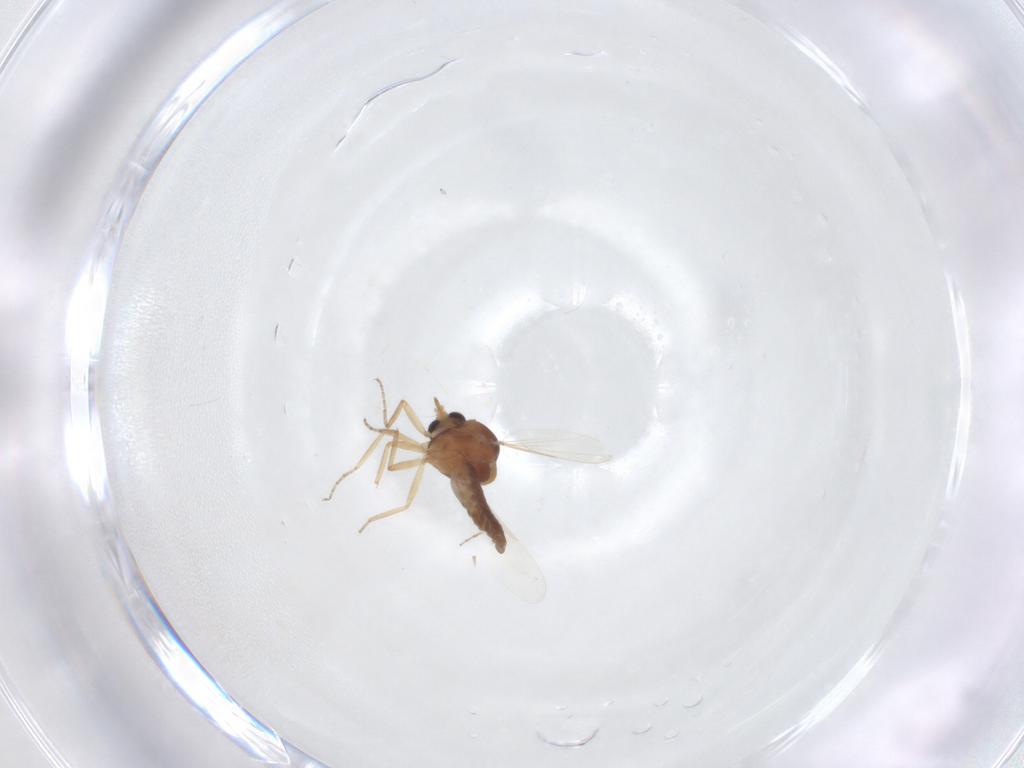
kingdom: Animalia
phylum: Arthropoda
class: Insecta
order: Diptera
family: Ceratopogonidae
